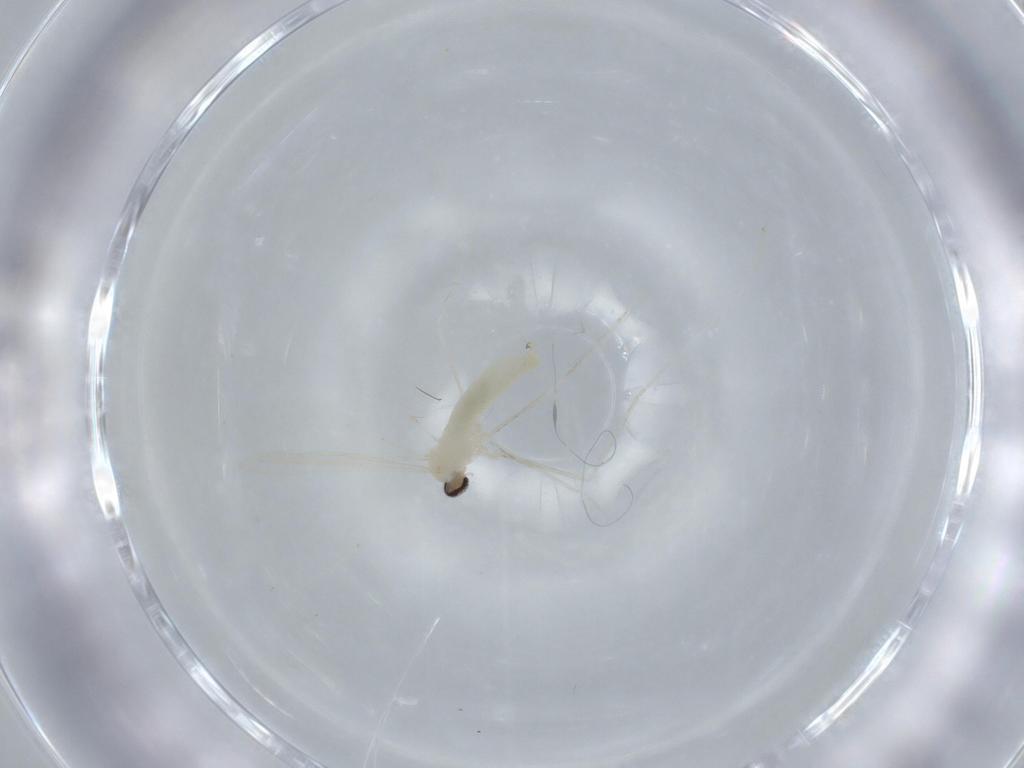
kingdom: Animalia
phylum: Arthropoda
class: Insecta
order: Diptera
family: Cecidomyiidae
